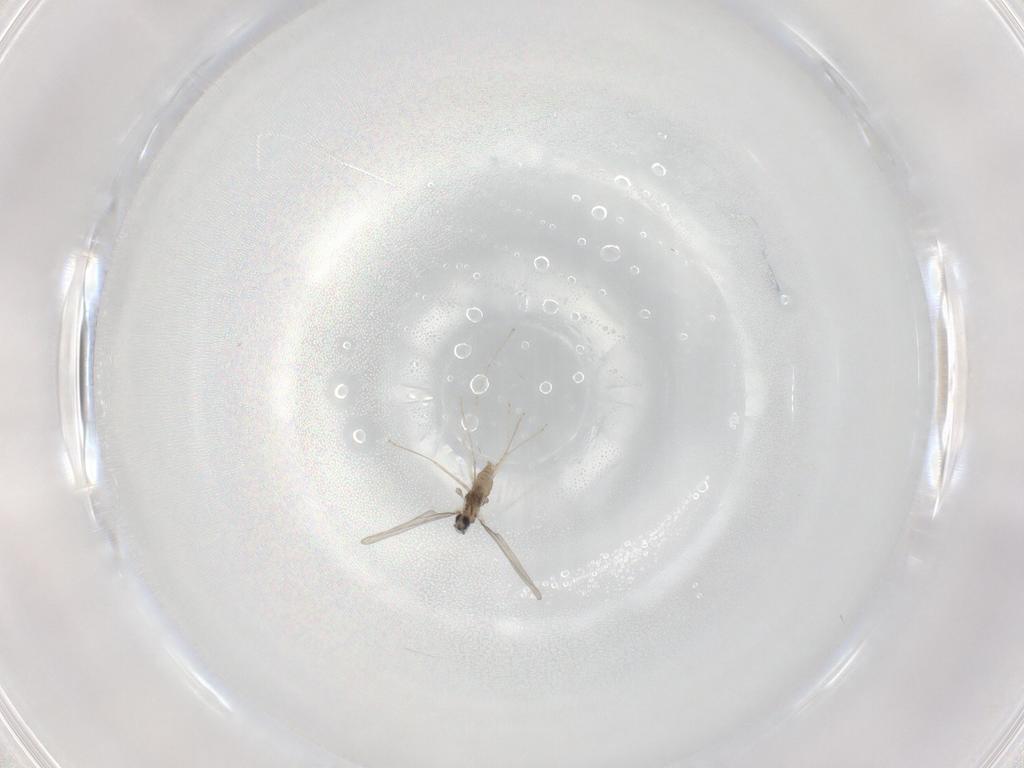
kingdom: Animalia
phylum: Arthropoda
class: Insecta
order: Diptera
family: Cecidomyiidae
